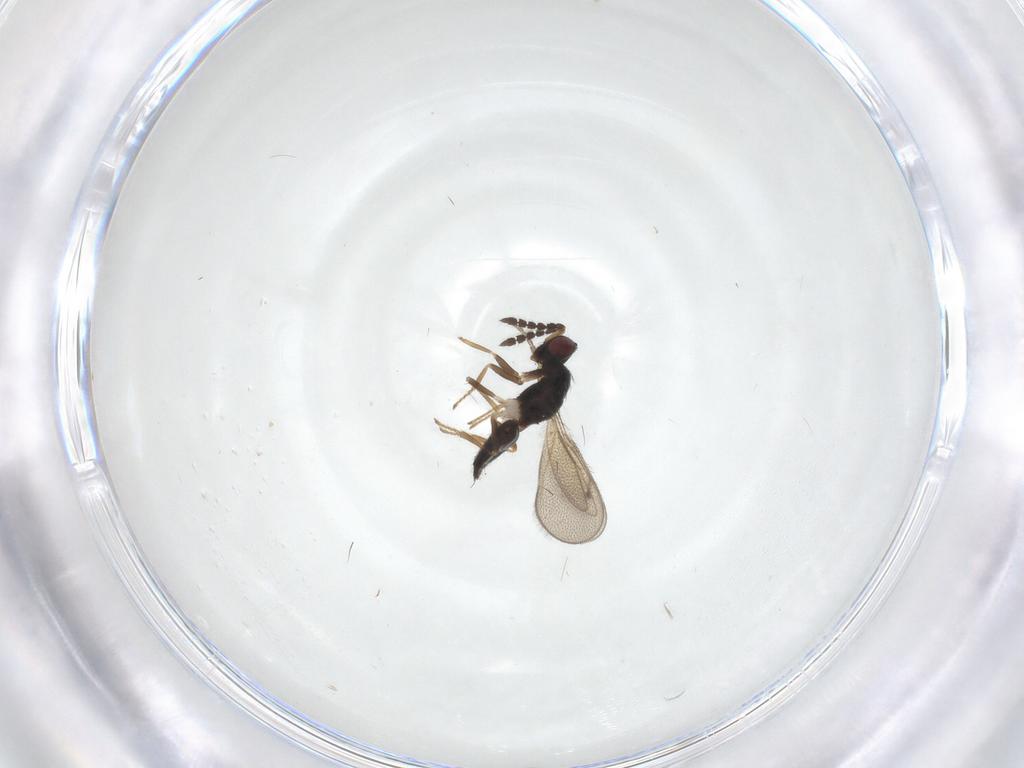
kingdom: Animalia
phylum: Arthropoda
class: Insecta
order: Hymenoptera
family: Eulophidae
